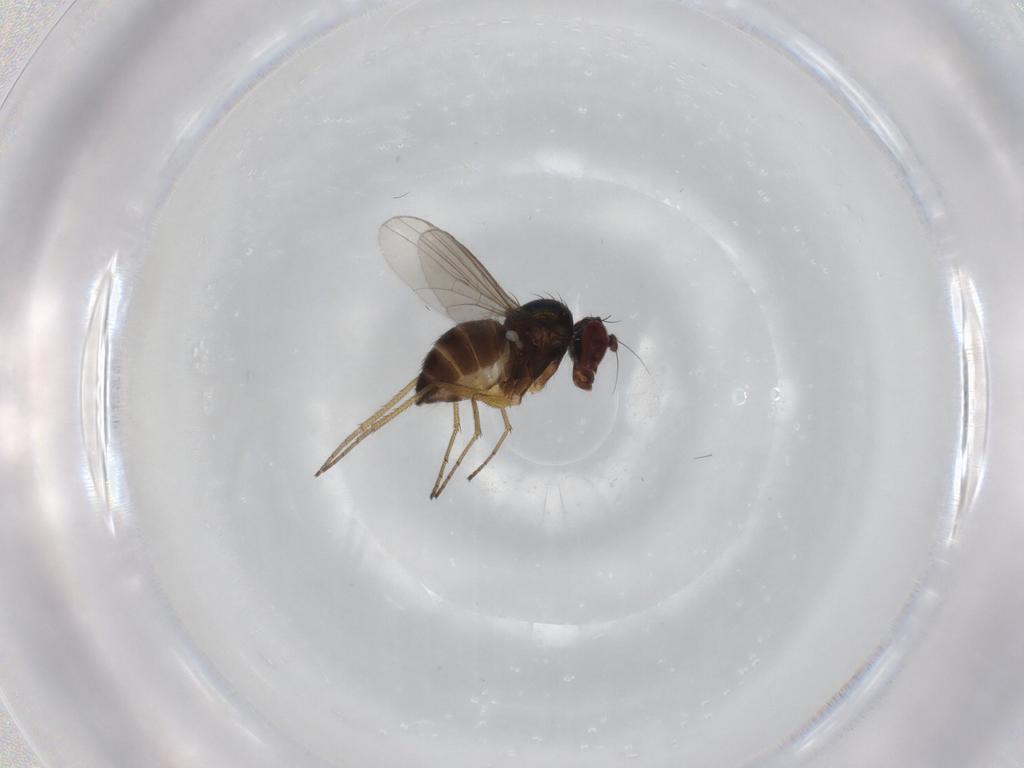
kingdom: Animalia
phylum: Arthropoda
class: Insecta
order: Diptera
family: Dolichopodidae
